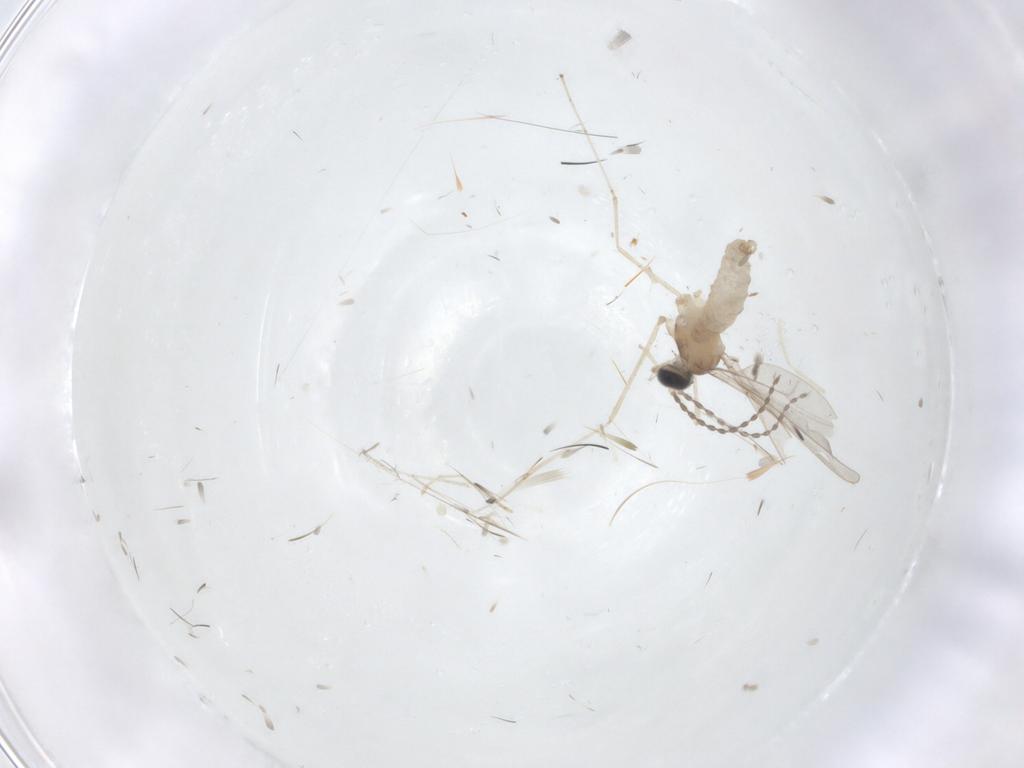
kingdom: Animalia
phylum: Arthropoda
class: Insecta
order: Diptera
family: Cecidomyiidae
